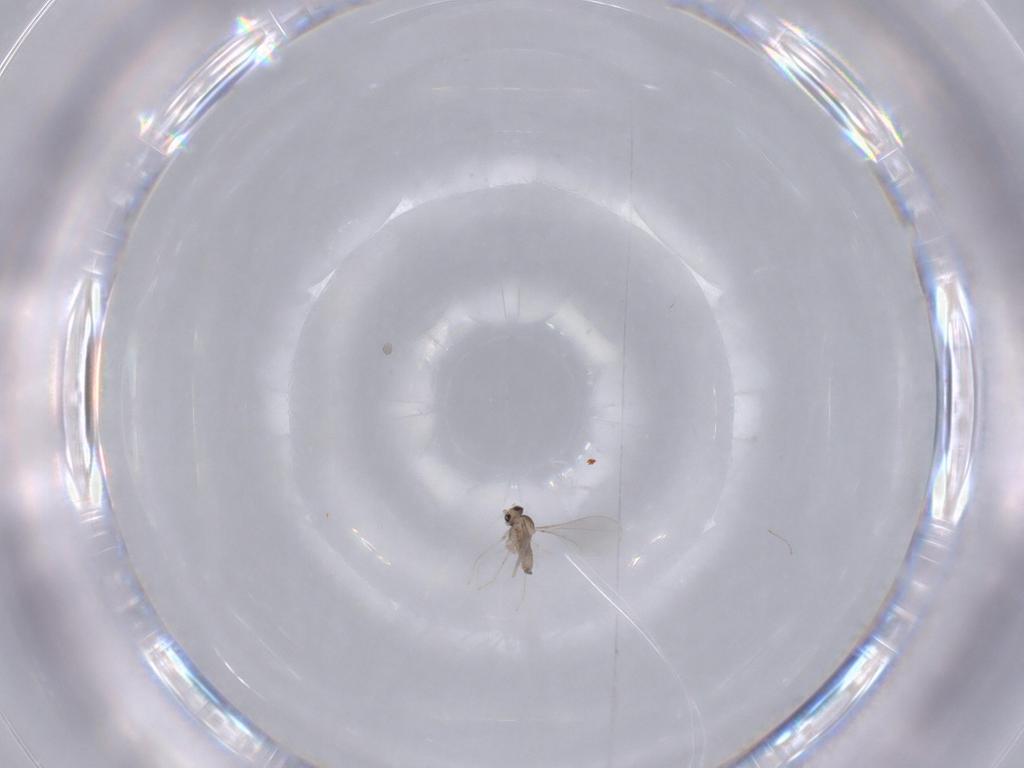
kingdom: Animalia
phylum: Arthropoda
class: Insecta
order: Diptera
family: Cecidomyiidae
